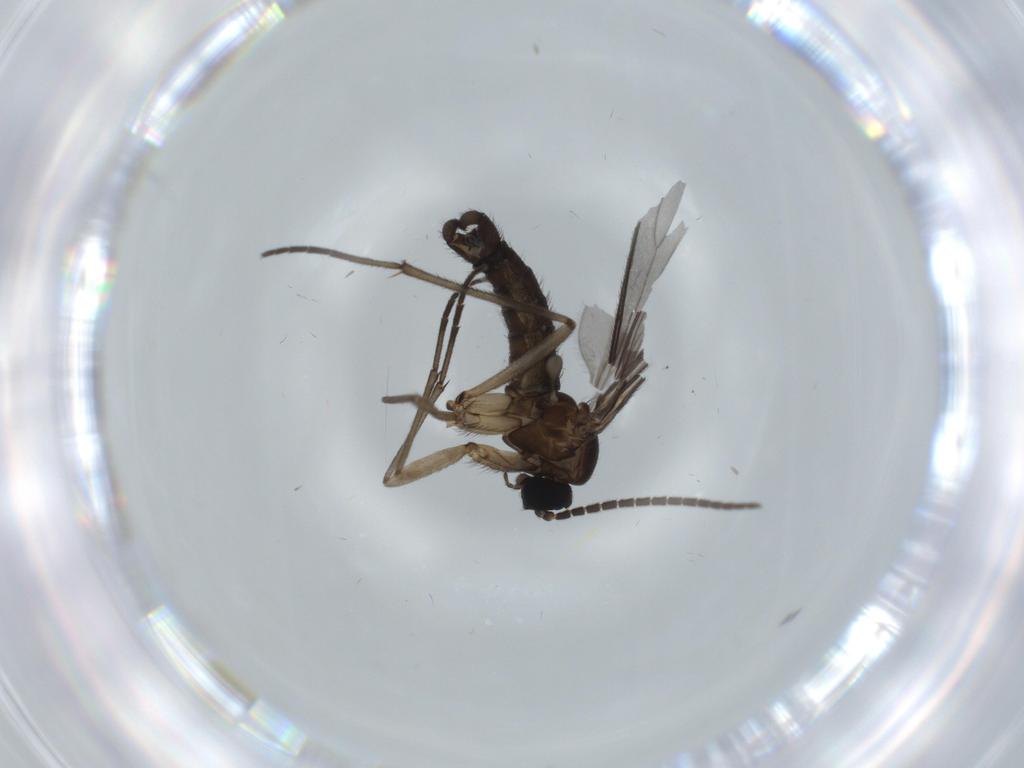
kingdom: Animalia
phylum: Arthropoda
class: Insecta
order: Diptera
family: Sciaridae
